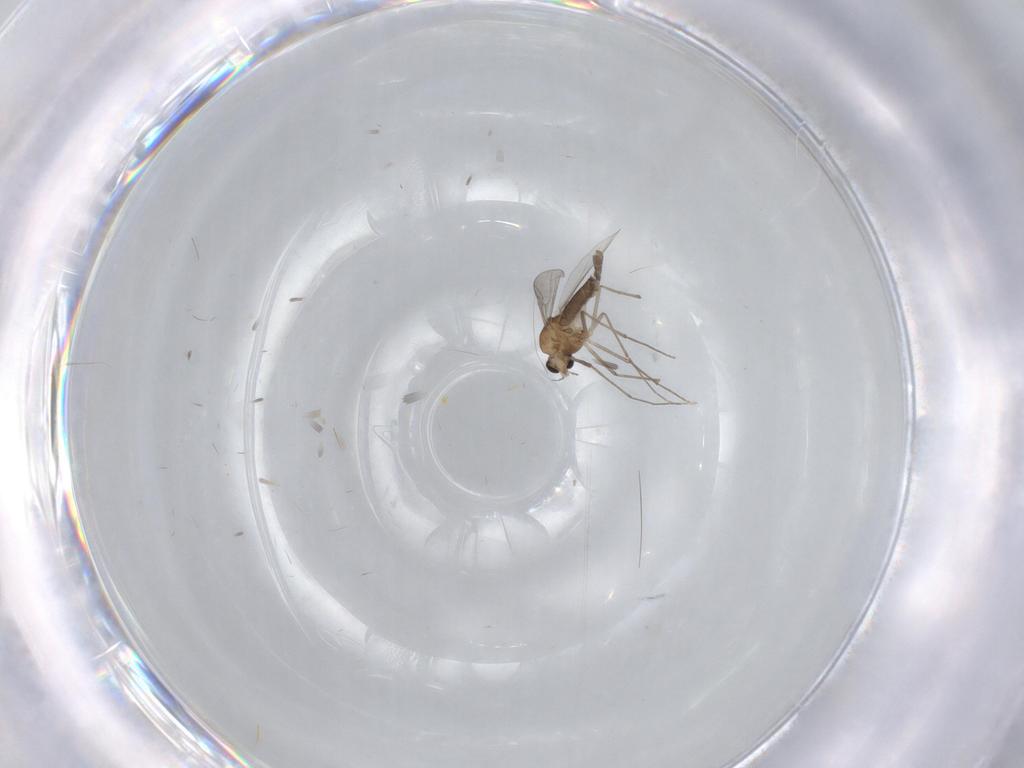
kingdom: Animalia
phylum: Arthropoda
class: Insecta
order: Diptera
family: Chironomidae
